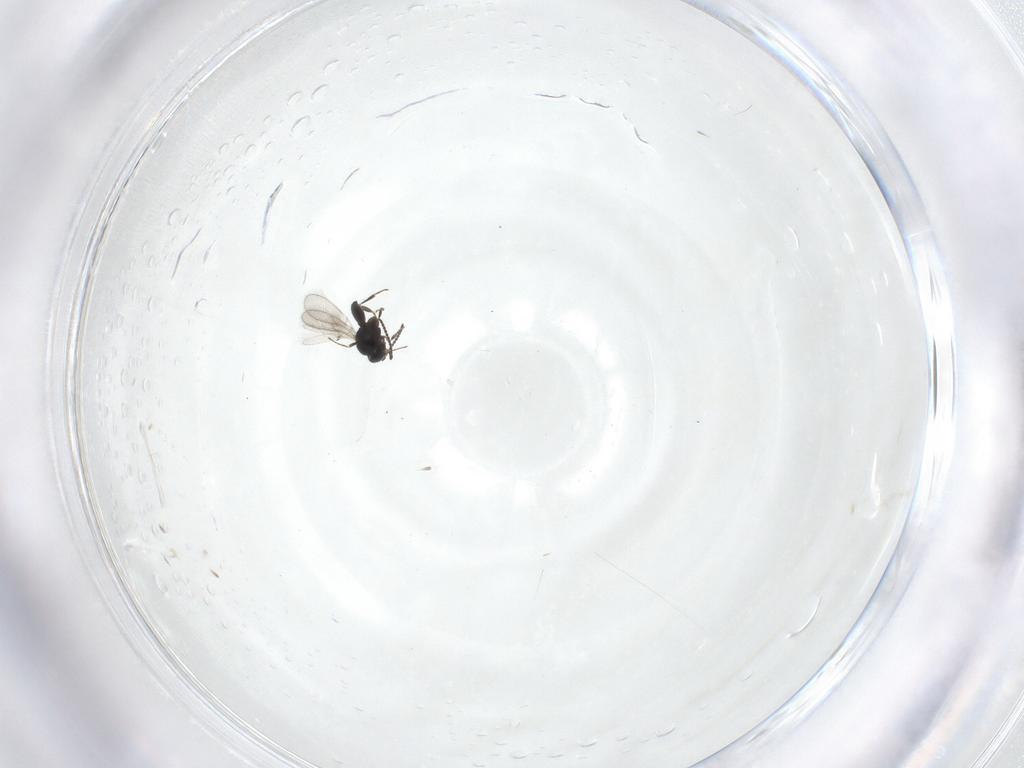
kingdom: Animalia
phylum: Arthropoda
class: Insecta
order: Hymenoptera
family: Scelionidae
